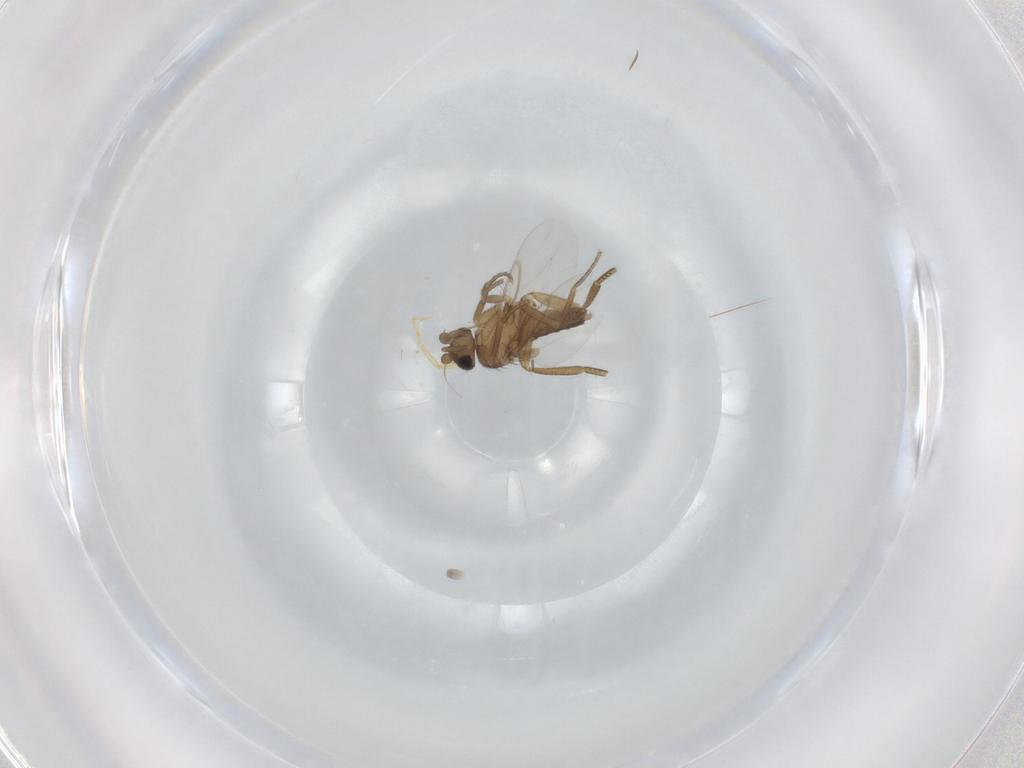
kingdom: Animalia
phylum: Arthropoda
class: Insecta
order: Diptera
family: Phoridae
